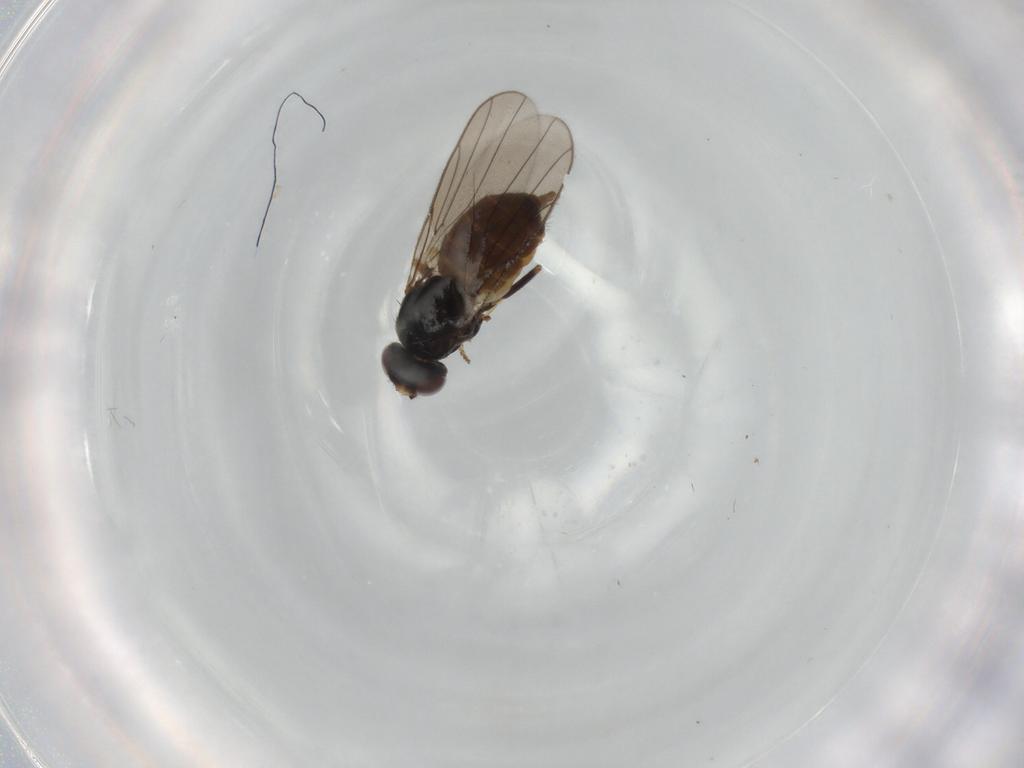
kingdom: Animalia
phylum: Arthropoda
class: Insecta
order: Diptera
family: Chloropidae
